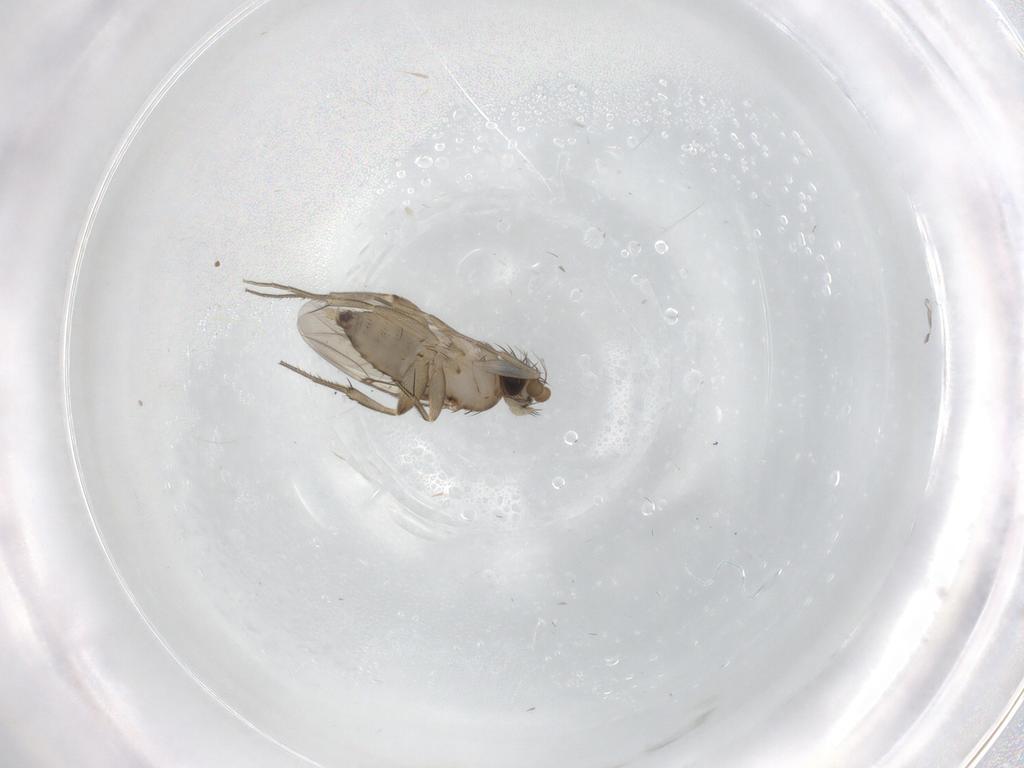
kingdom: Animalia
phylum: Arthropoda
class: Insecta
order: Diptera
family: Phoridae
